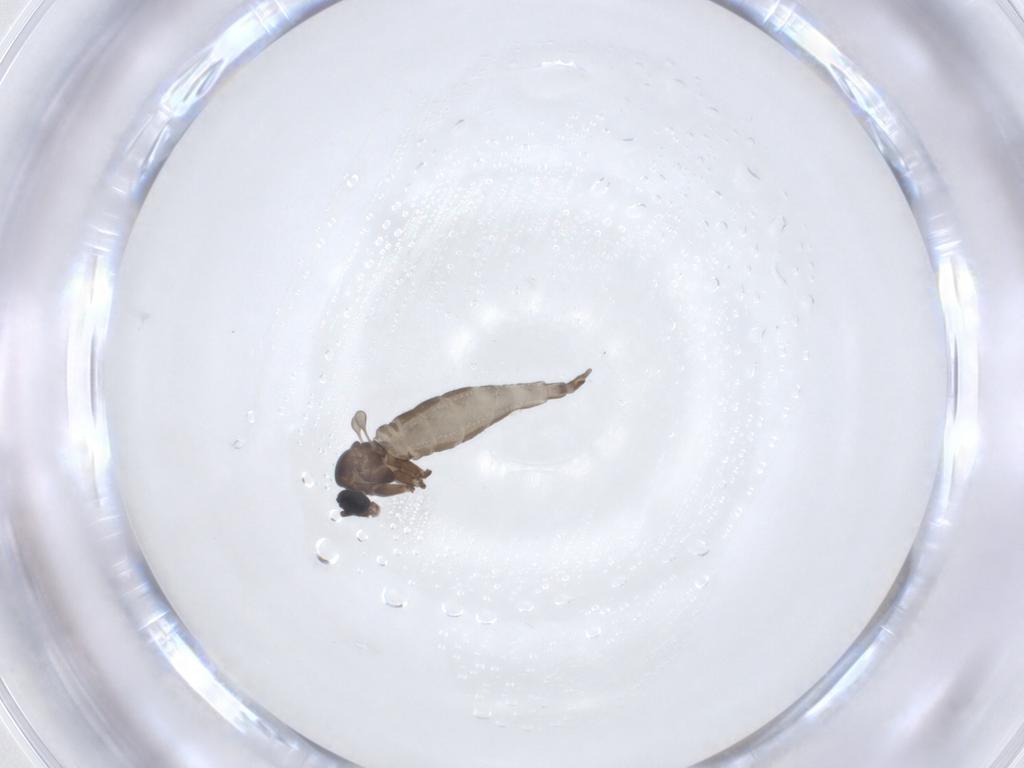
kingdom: Animalia
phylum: Arthropoda
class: Insecta
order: Diptera
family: Sciaridae
